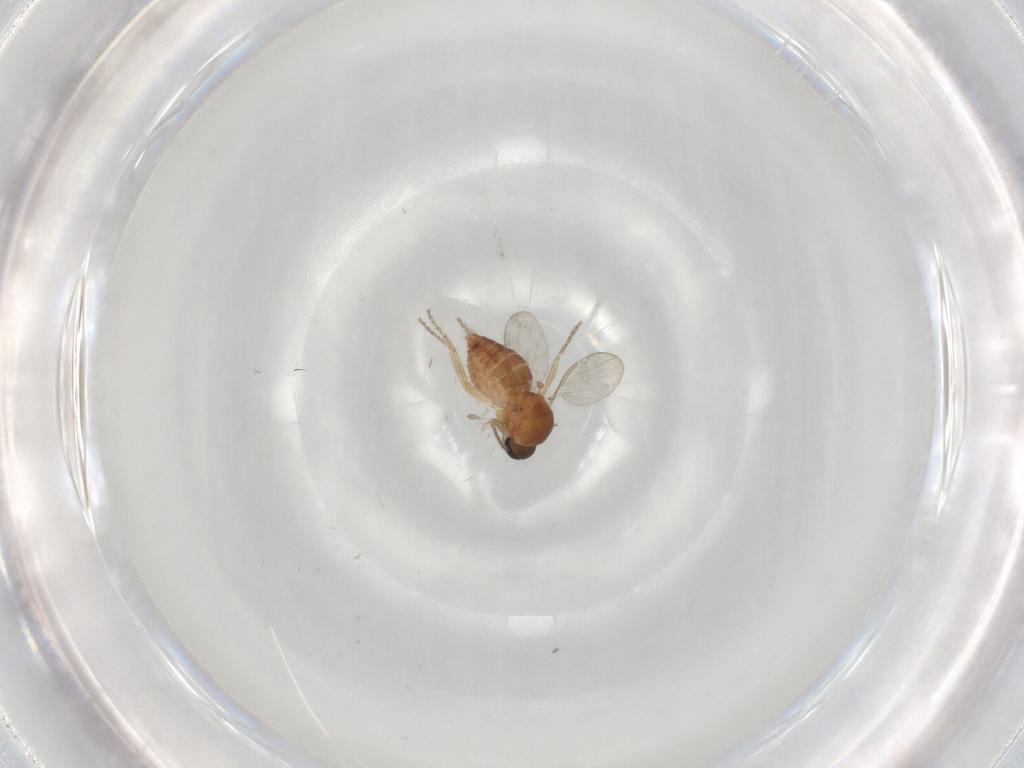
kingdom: Animalia
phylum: Arthropoda
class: Insecta
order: Diptera
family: Ceratopogonidae
